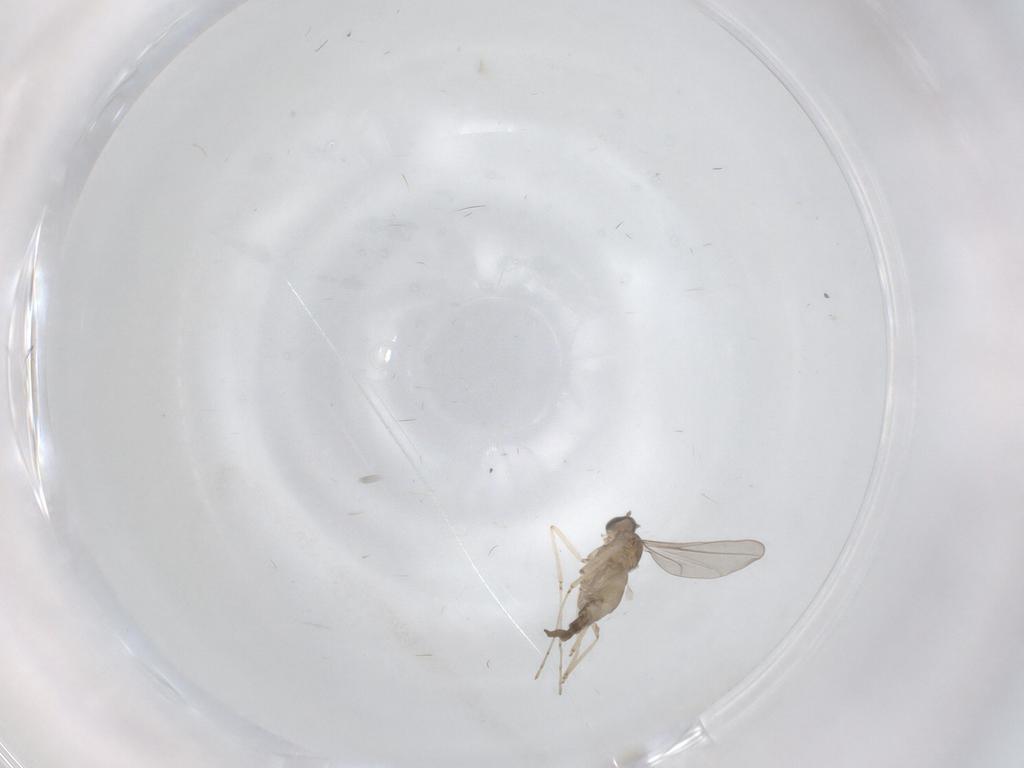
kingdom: Animalia
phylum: Arthropoda
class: Insecta
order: Diptera
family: Cecidomyiidae
